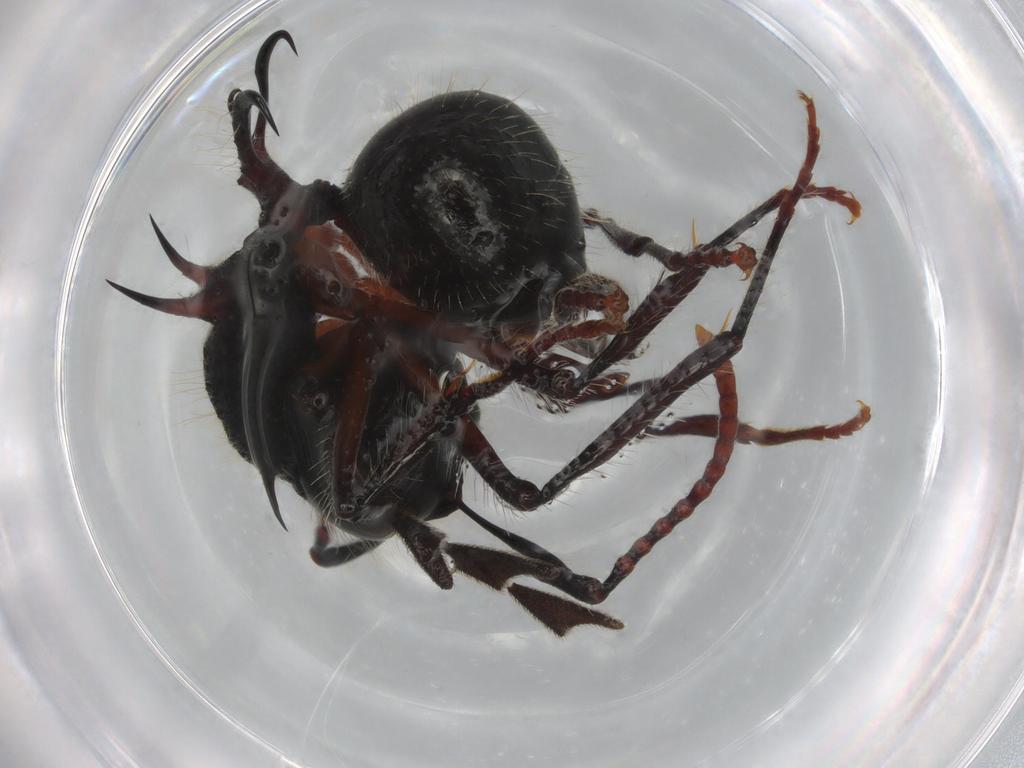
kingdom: Animalia
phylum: Arthropoda
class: Insecta
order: Hymenoptera
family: Formicidae
